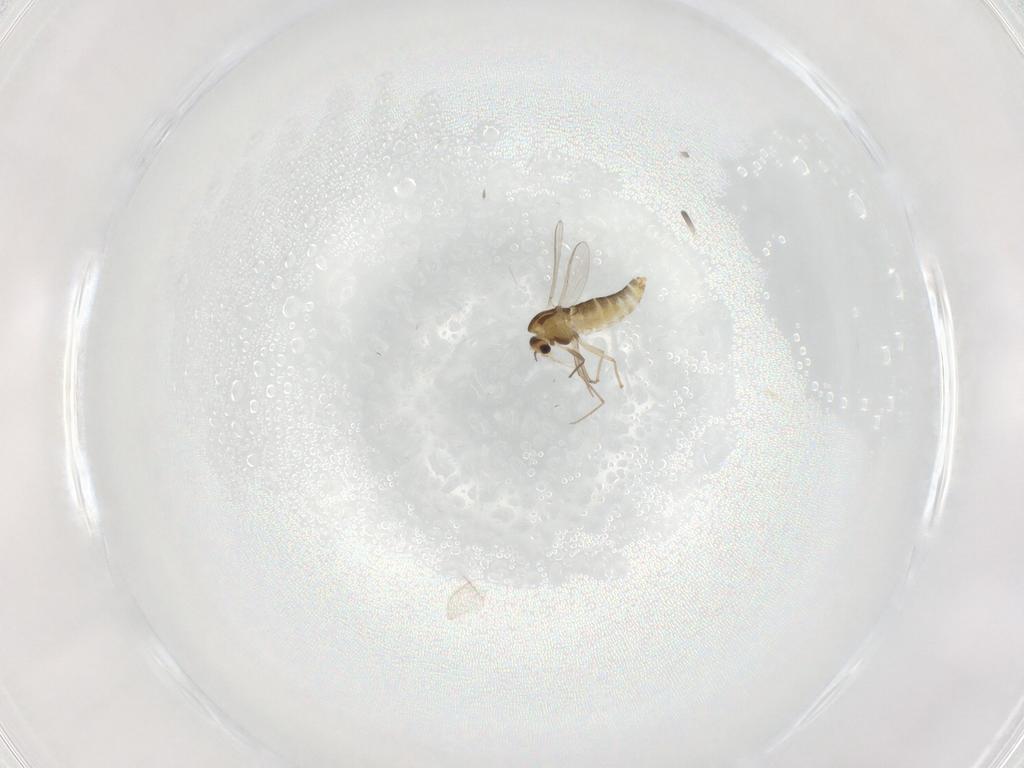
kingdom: Animalia
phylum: Arthropoda
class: Insecta
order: Diptera
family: Chironomidae
